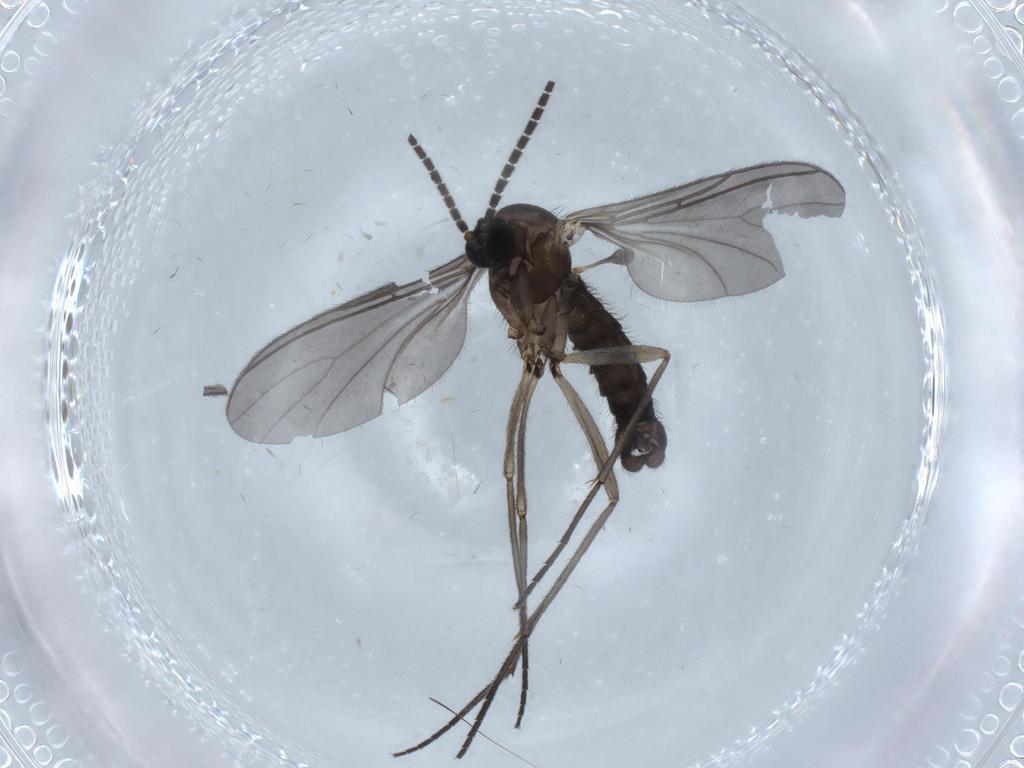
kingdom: Animalia
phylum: Arthropoda
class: Insecta
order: Diptera
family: Sciaridae
